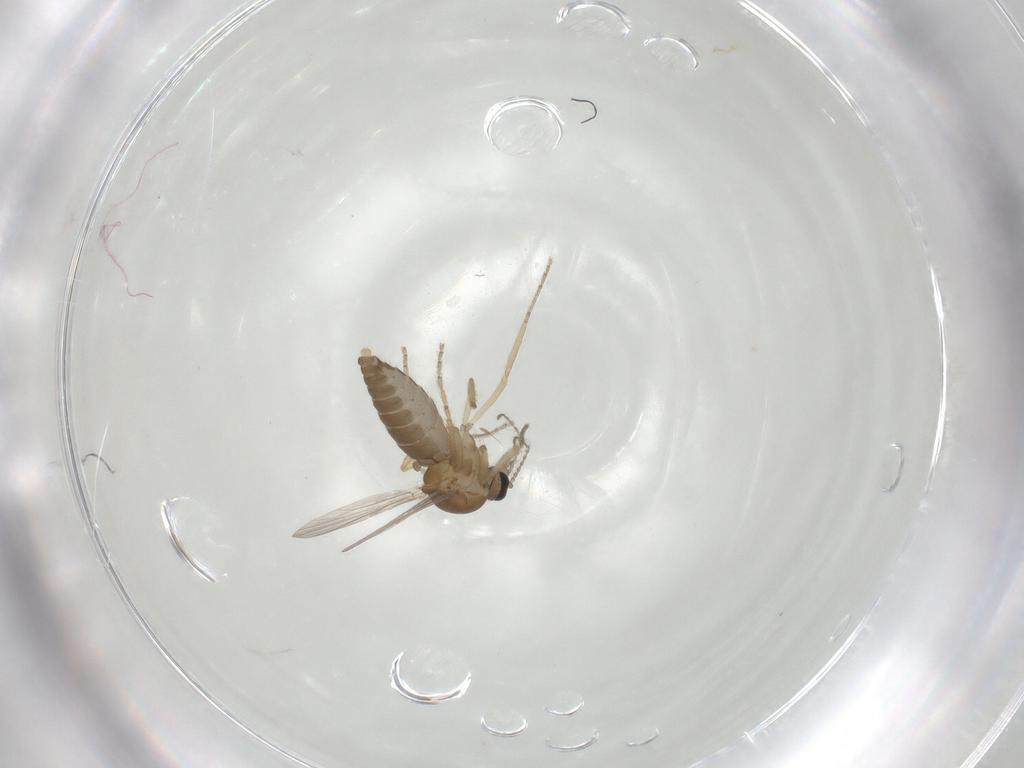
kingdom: Animalia
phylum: Arthropoda
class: Insecta
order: Diptera
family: Ceratopogonidae
